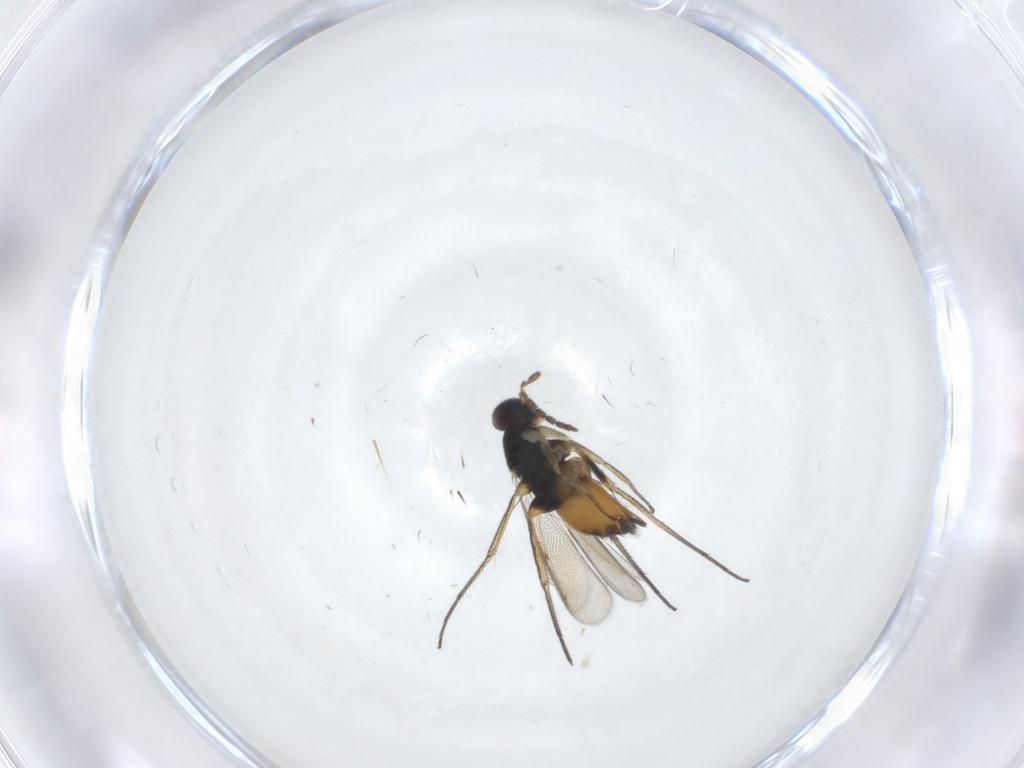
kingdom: Animalia
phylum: Arthropoda
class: Insecta
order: Hymenoptera
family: Eulophidae
